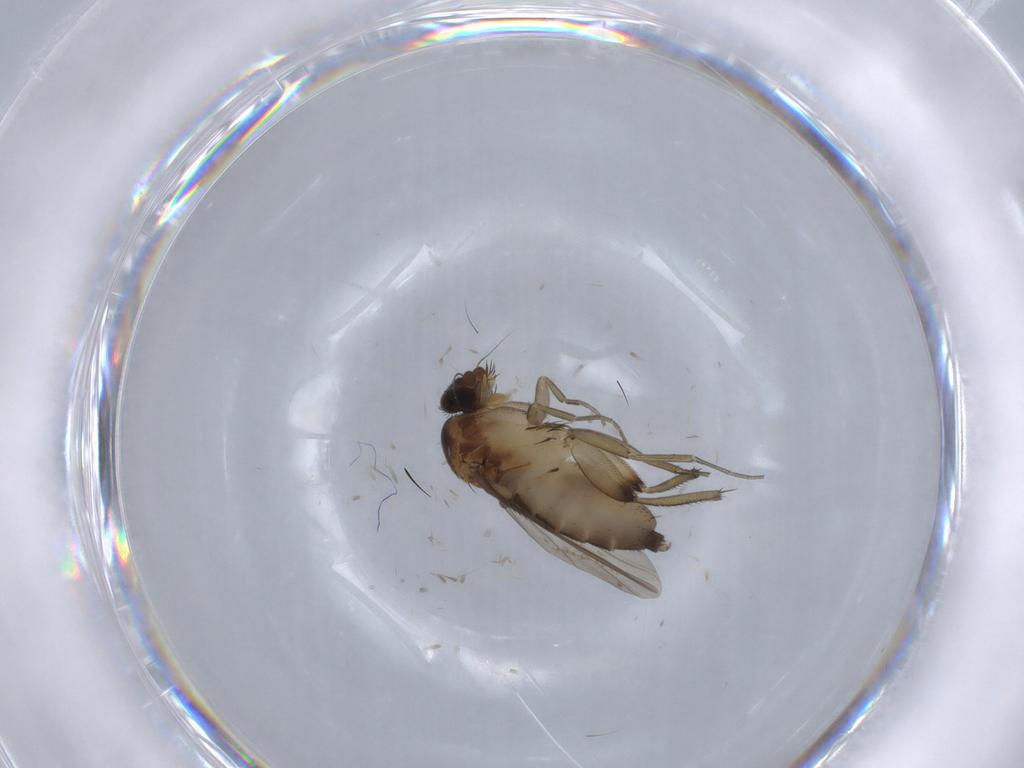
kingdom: Animalia
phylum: Arthropoda
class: Insecta
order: Diptera
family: Phoridae
